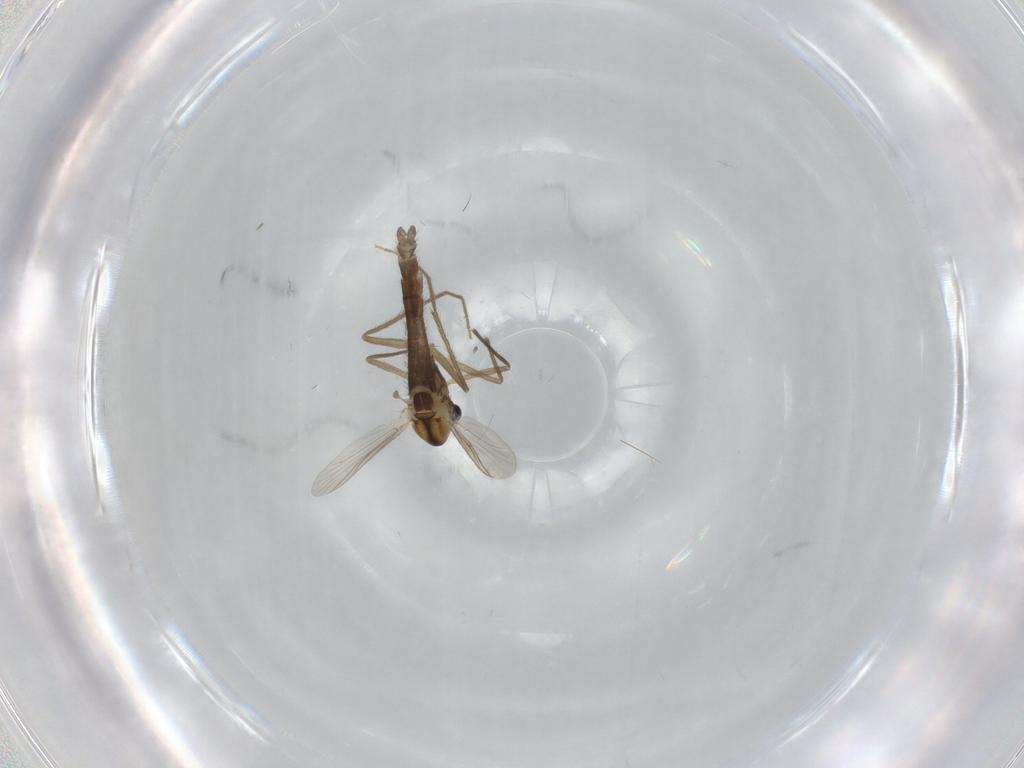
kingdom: Animalia
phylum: Arthropoda
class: Insecta
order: Diptera
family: Chironomidae
